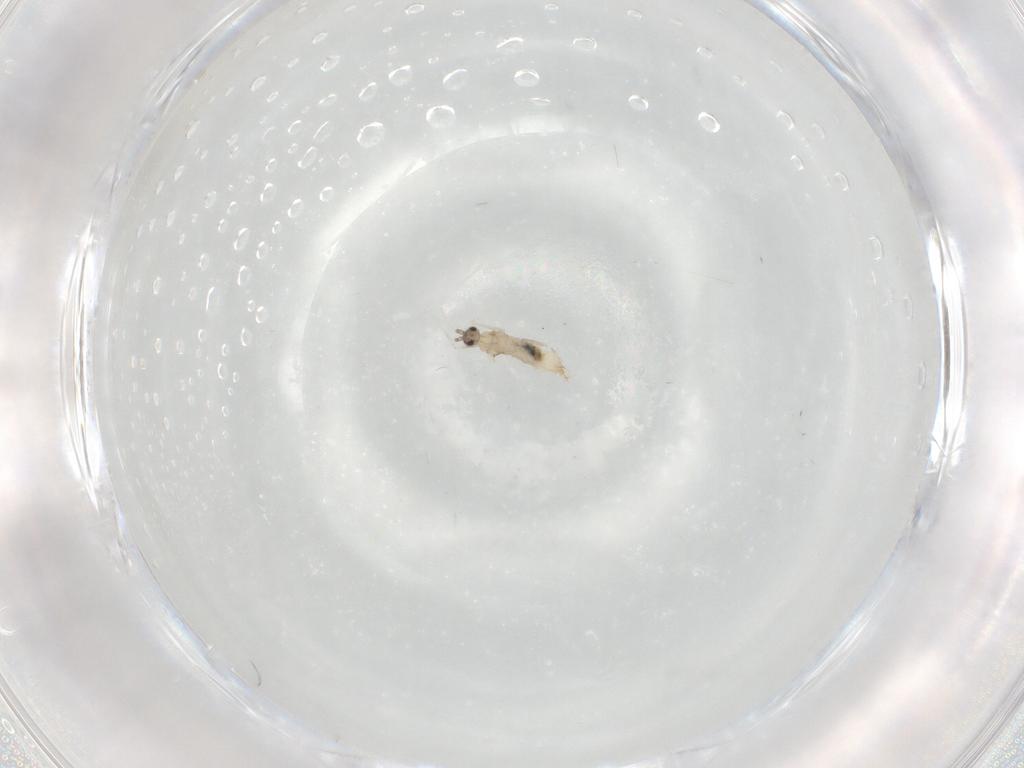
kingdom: Animalia
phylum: Arthropoda
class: Insecta
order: Diptera
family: Cecidomyiidae
